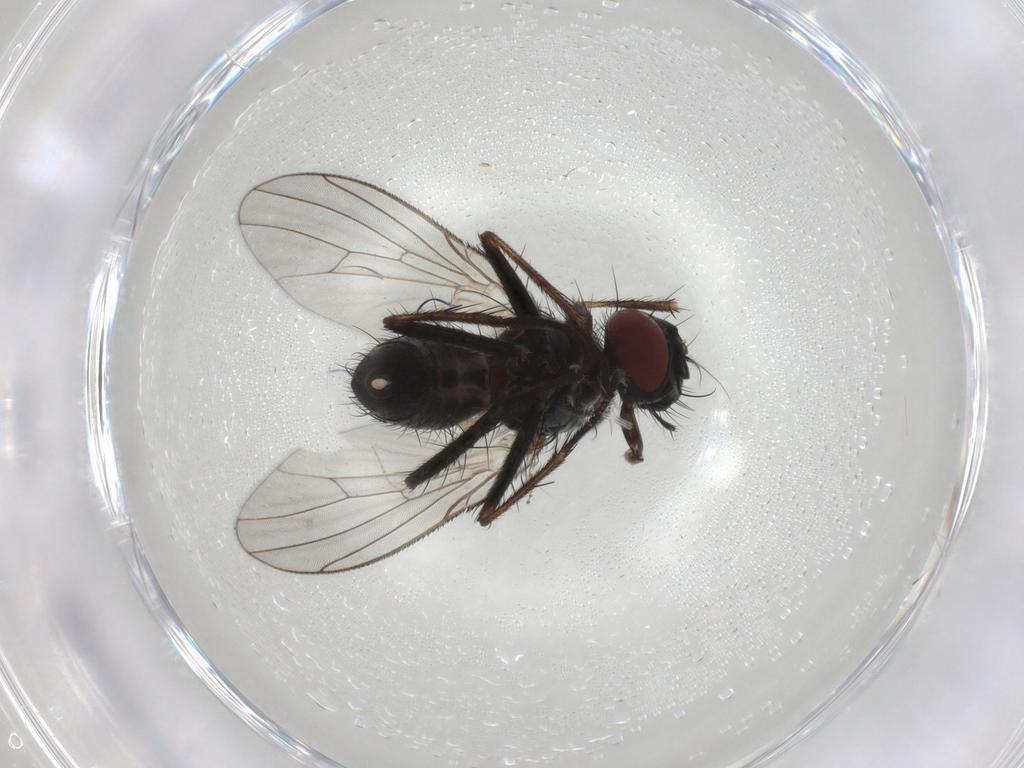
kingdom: Animalia
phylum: Arthropoda
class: Insecta
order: Diptera
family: Muscidae
